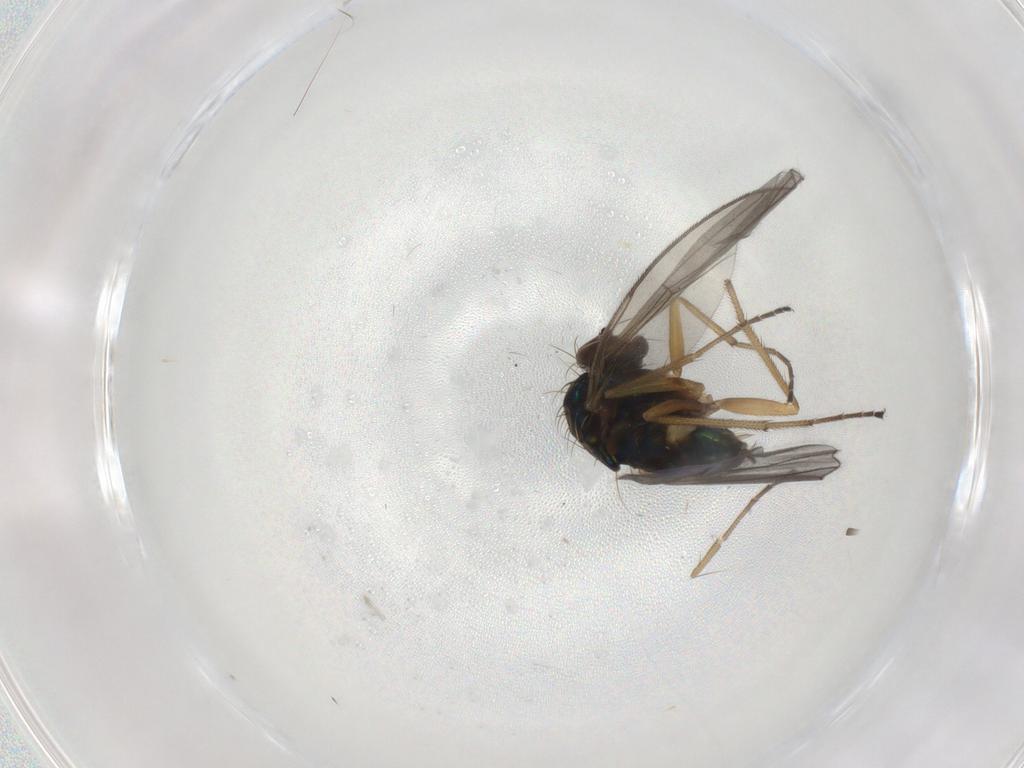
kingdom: Animalia
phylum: Arthropoda
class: Insecta
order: Diptera
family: Dolichopodidae
